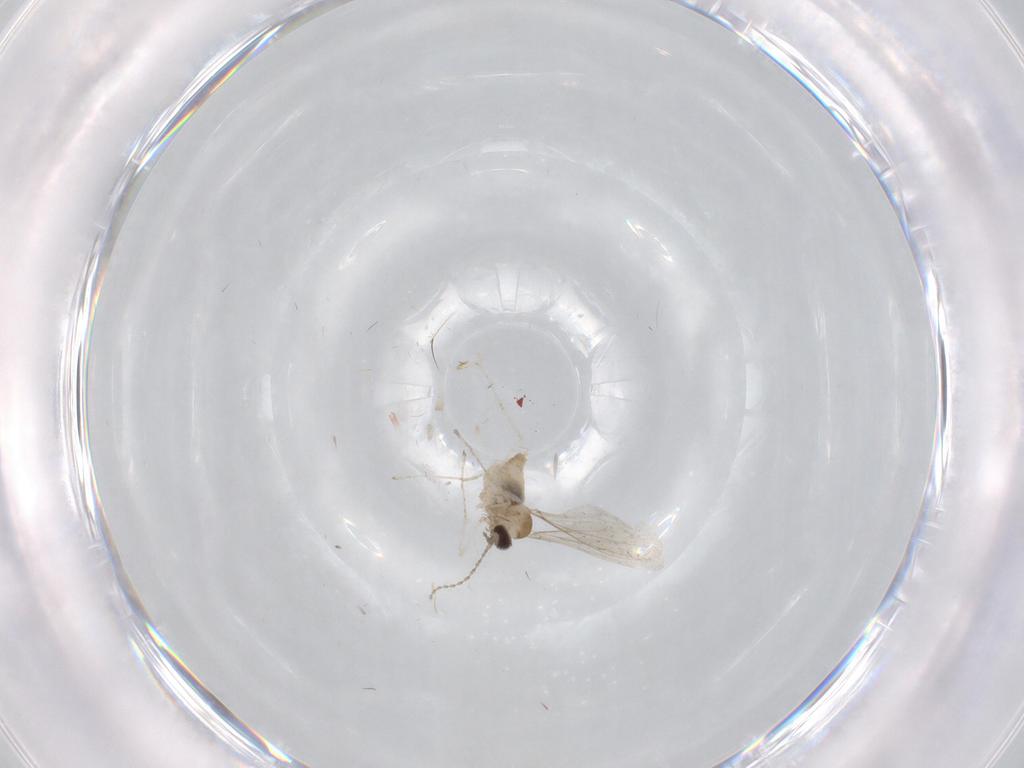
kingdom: Animalia
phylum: Arthropoda
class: Insecta
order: Diptera
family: Cecidomyiidae
